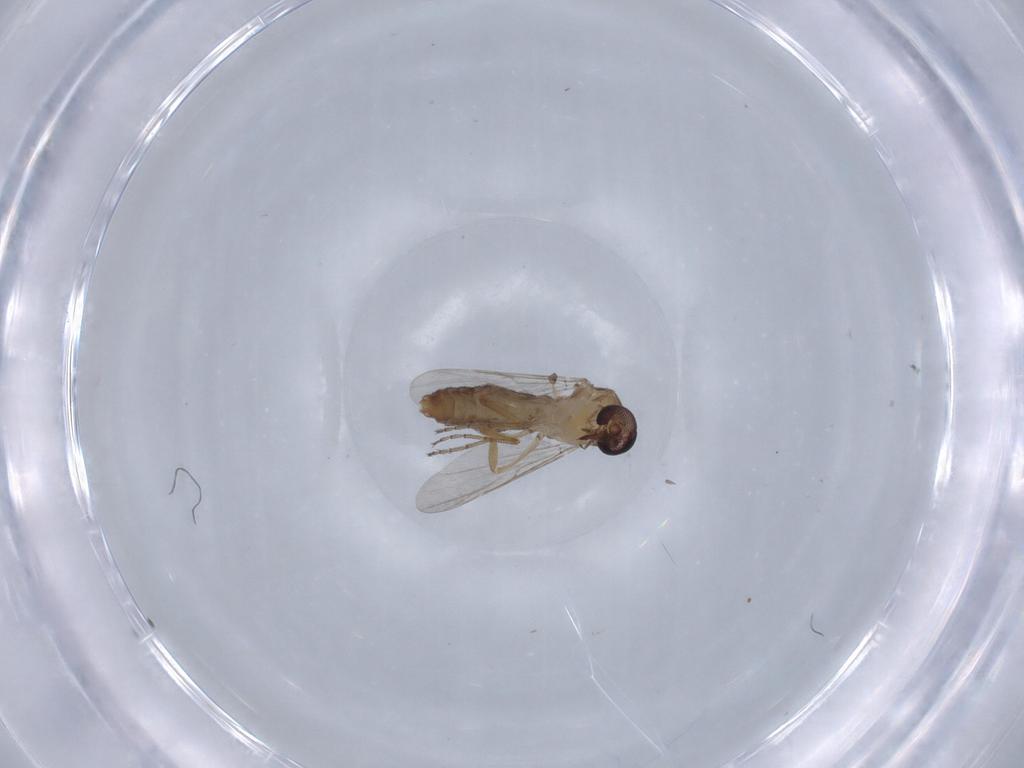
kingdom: Animalia
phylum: Arthropoda
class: Insecta
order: Diptera
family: Ceratopogonidae
